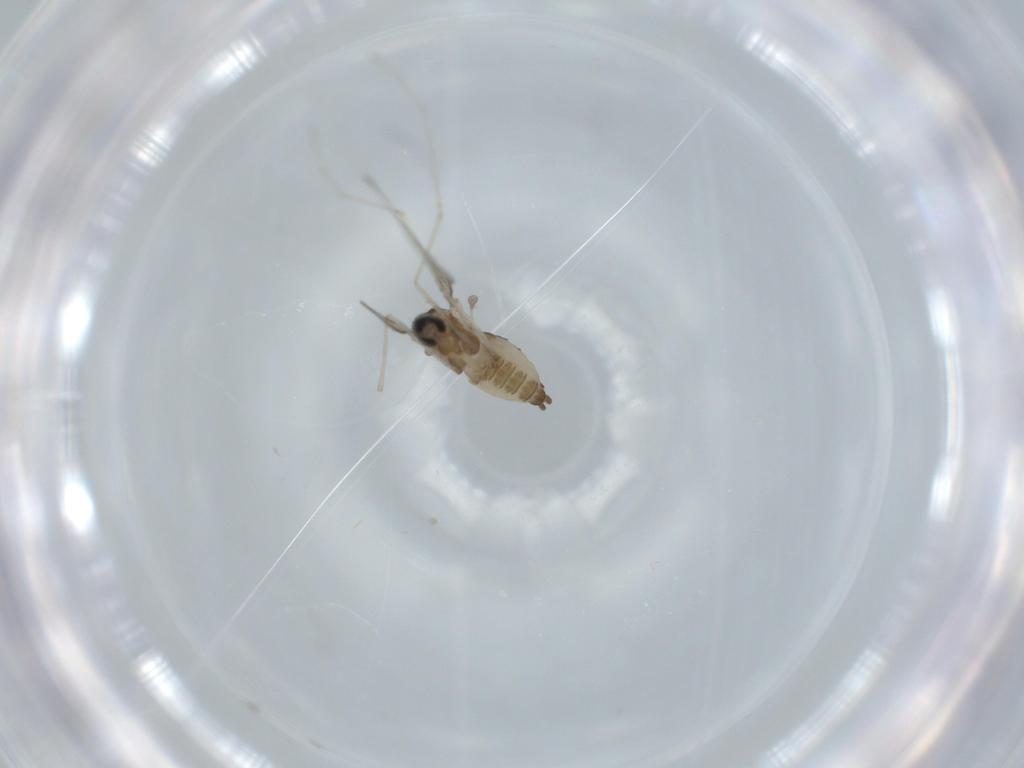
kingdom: Animalia
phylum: Arthropoda
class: Insecta
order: Diptera
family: Cecidomyiidae
